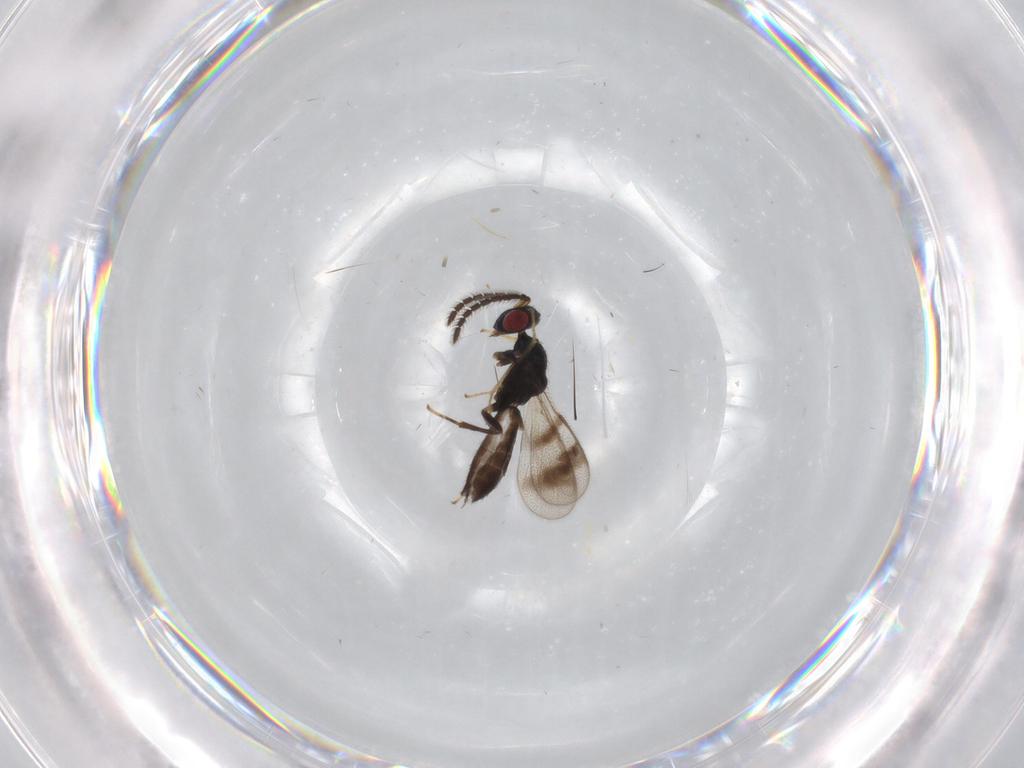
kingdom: Animalia
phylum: Arthropoda
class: Insecta
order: Hymenoptera
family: Pteromalidae
